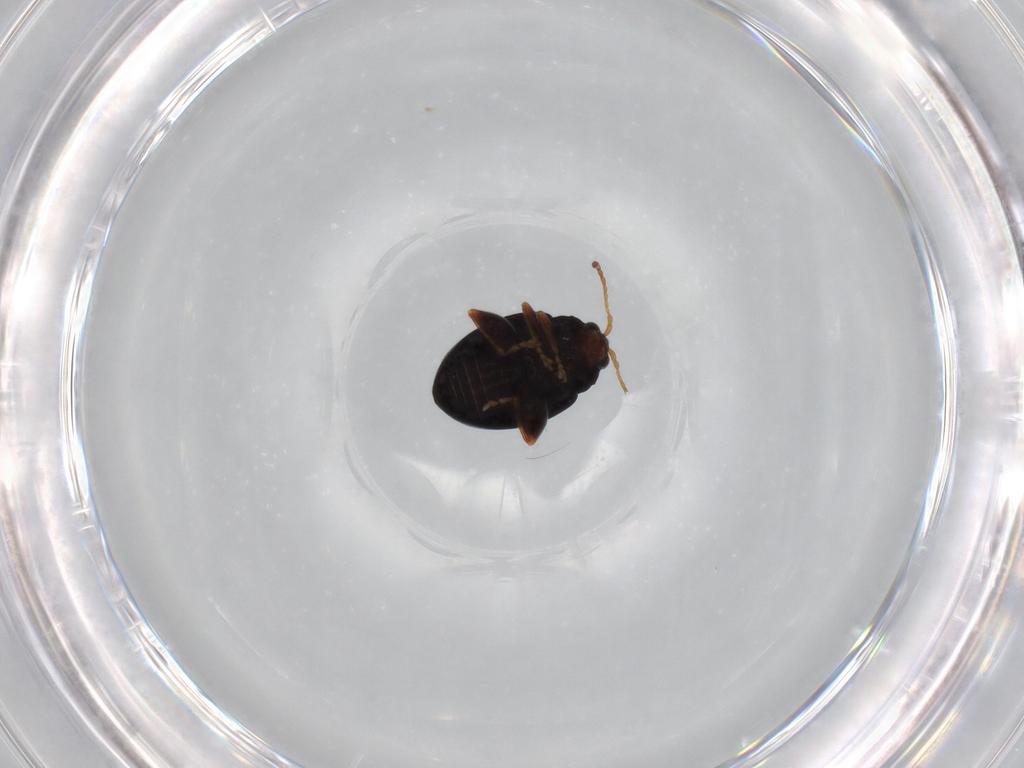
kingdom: Animalia
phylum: Arthropoda
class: Insecta
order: Coleoptera
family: Chrysomelidae
